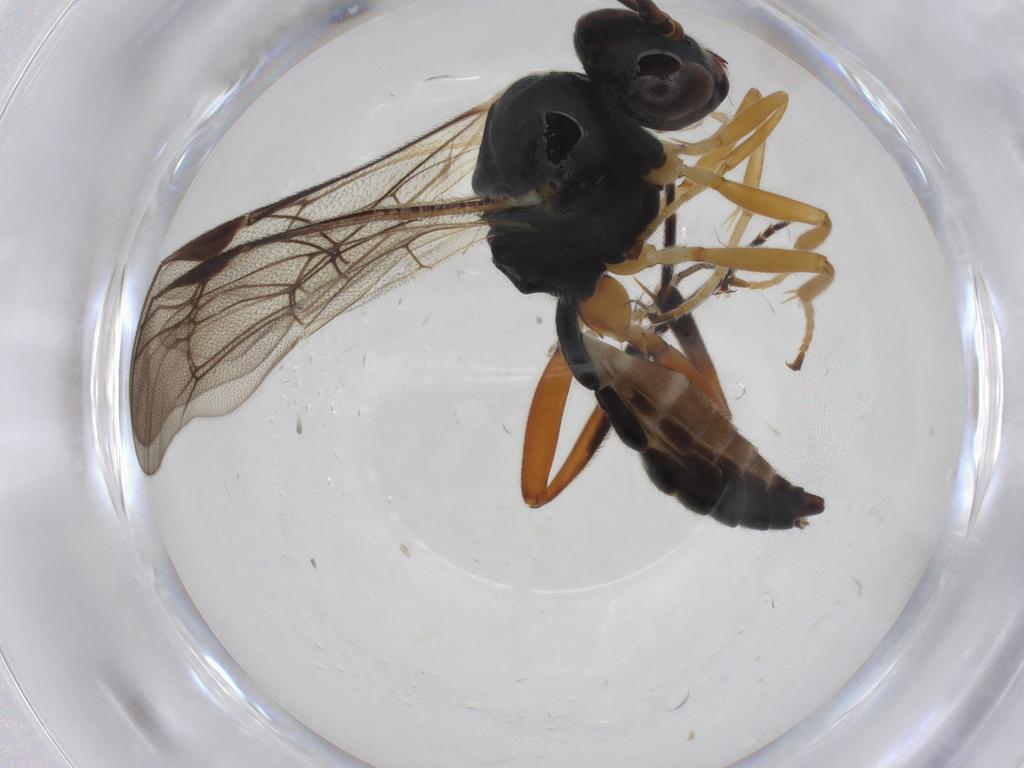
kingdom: Animalia
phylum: Arthropoda
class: Insecta
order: Hymenoptera
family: Ichneumonidae
